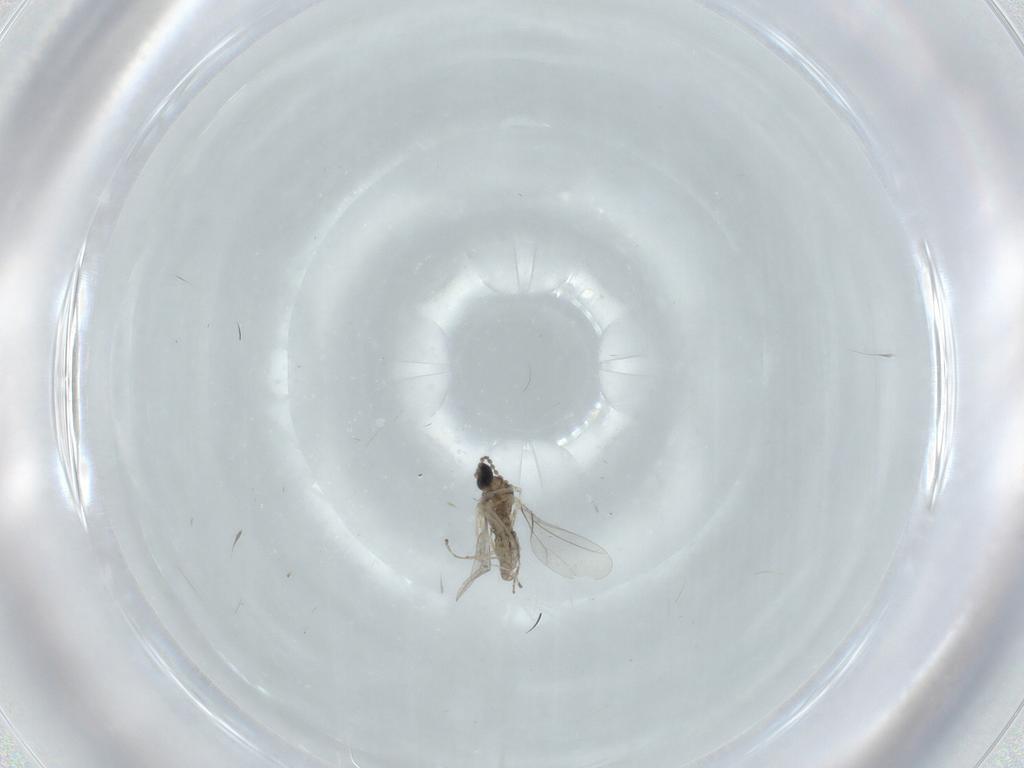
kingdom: Animalia
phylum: Arthropoda
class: Insecta
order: Diptera
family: Cecidomyiidae
